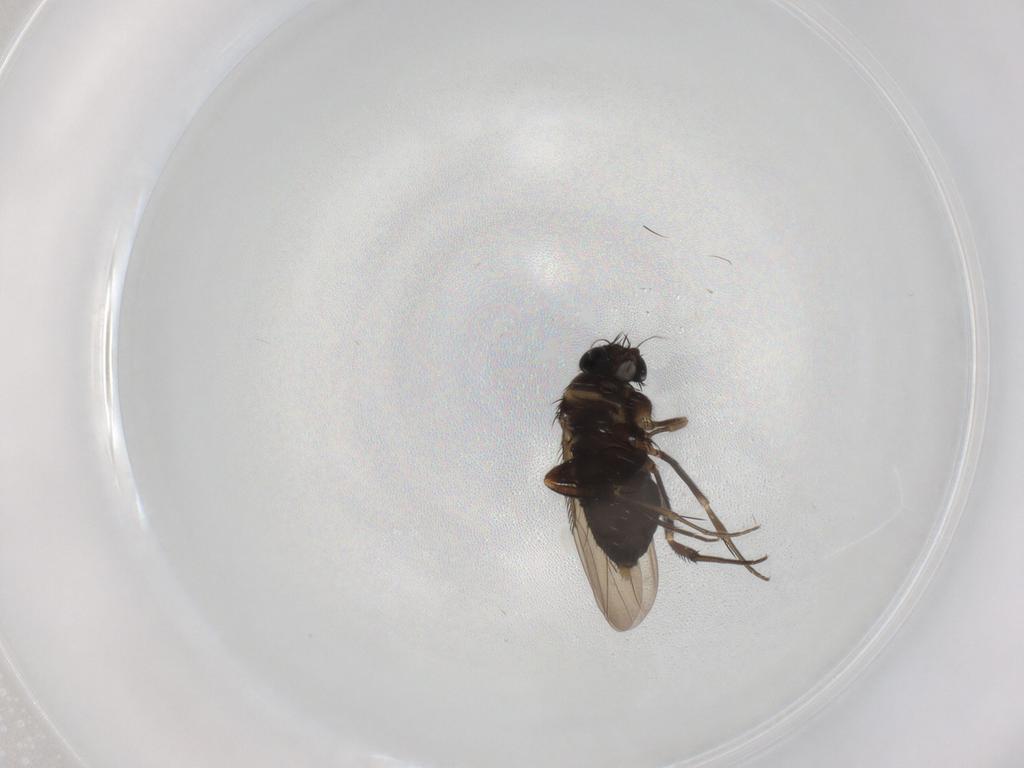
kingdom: Animalia
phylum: Arthropoda
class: Insecta
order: Diptera
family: Phoridae
